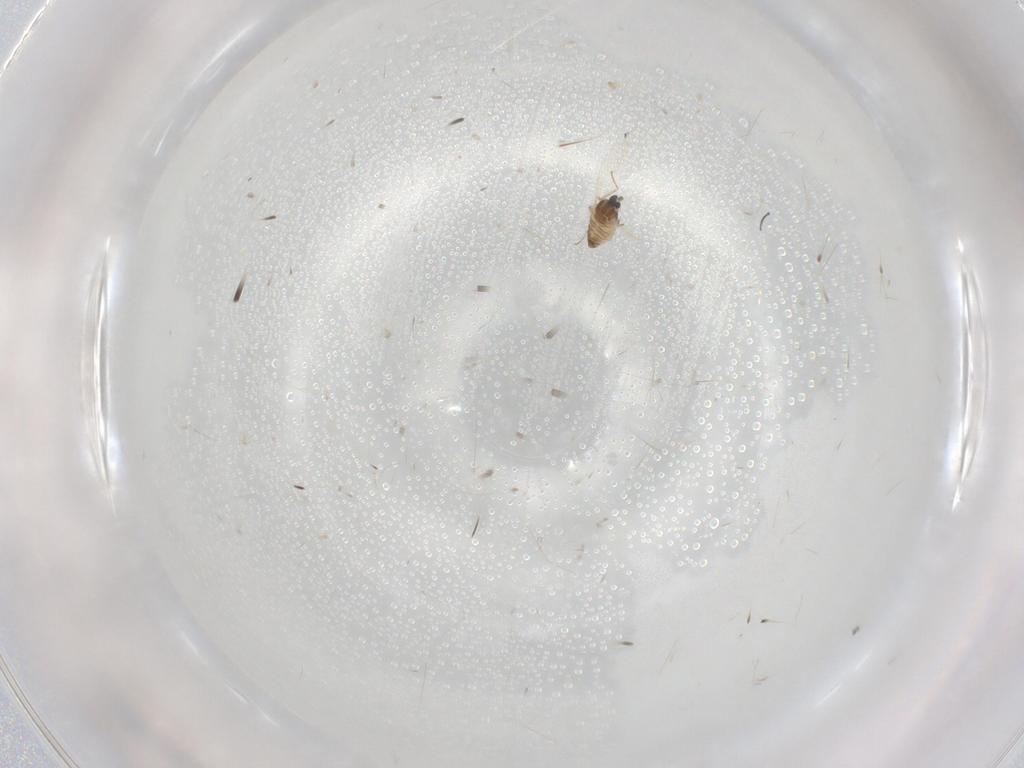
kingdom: Animalia
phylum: Arthropoda
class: Insecta
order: Diptera
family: Cecidomyiidae
